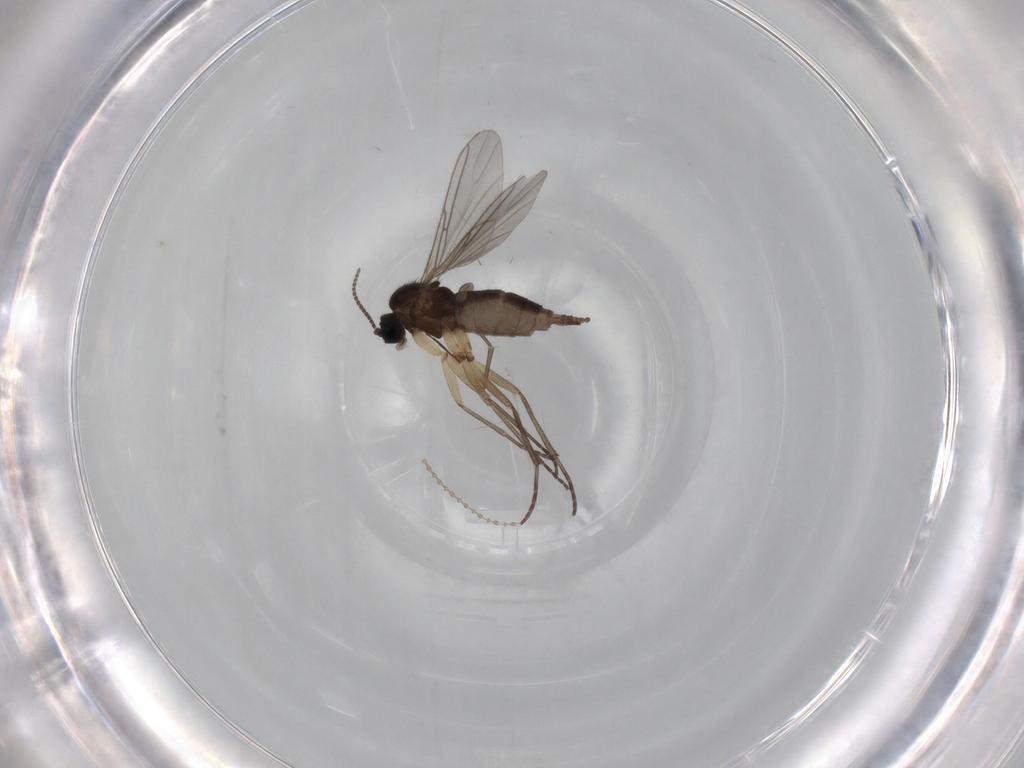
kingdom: Animalia
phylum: Arthropoda
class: Insecta
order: Diptera
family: Sciaridae
